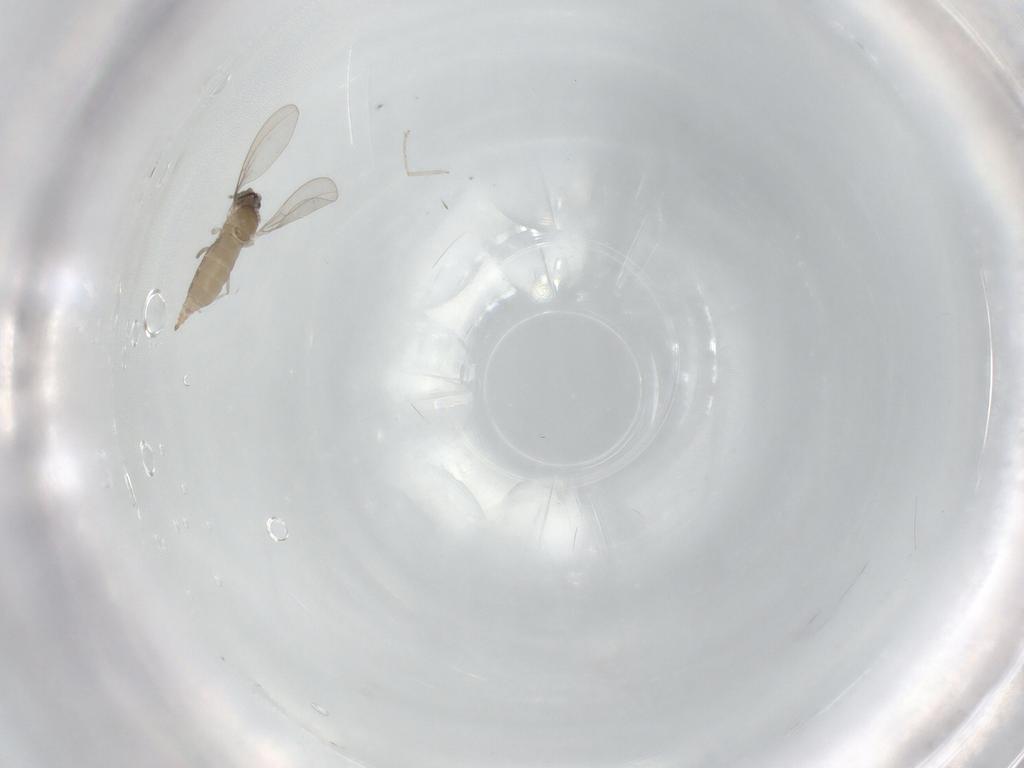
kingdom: Animalia
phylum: Arthropoda
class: Insecta
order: Diptera
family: Cecidomyiidae
